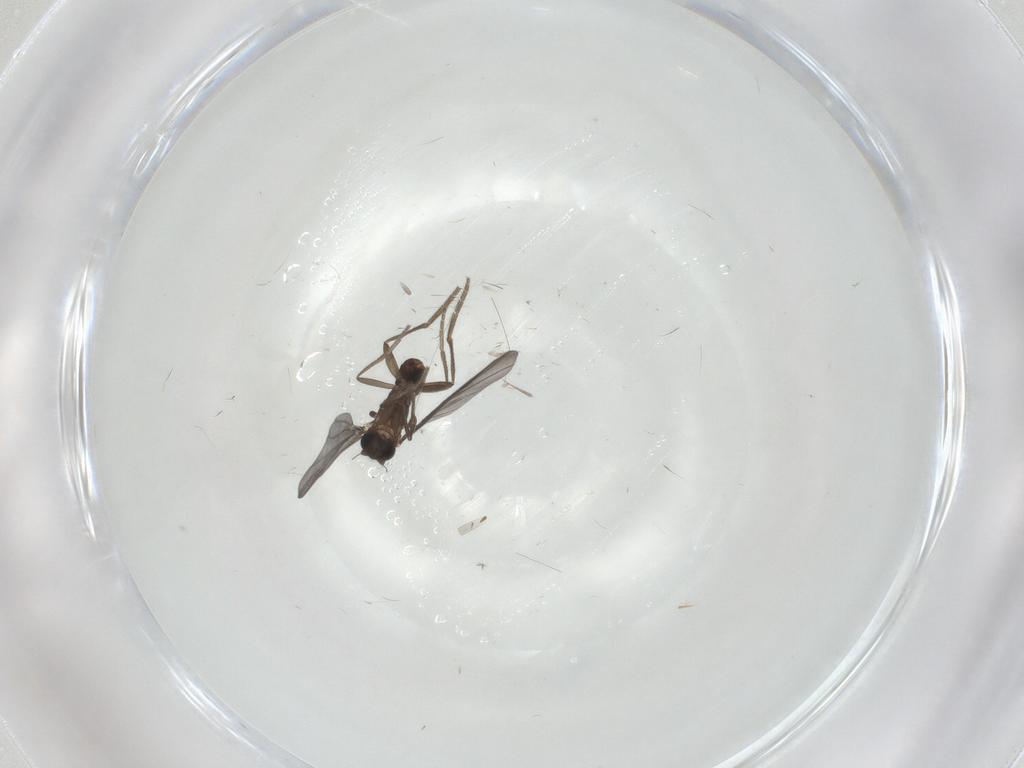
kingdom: Animalia
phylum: Arthropoda
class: Insecta
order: Diptera
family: Phoridae
